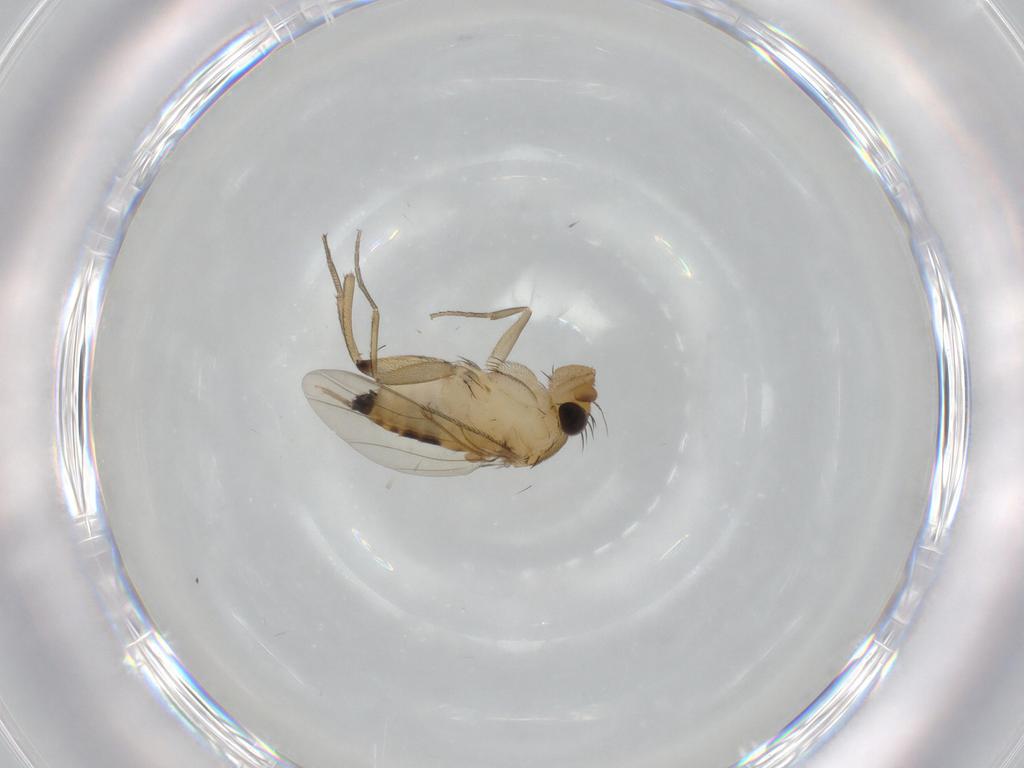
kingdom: Animalia
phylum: Arthropoda
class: Insecta
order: Diptera
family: Phoridae
